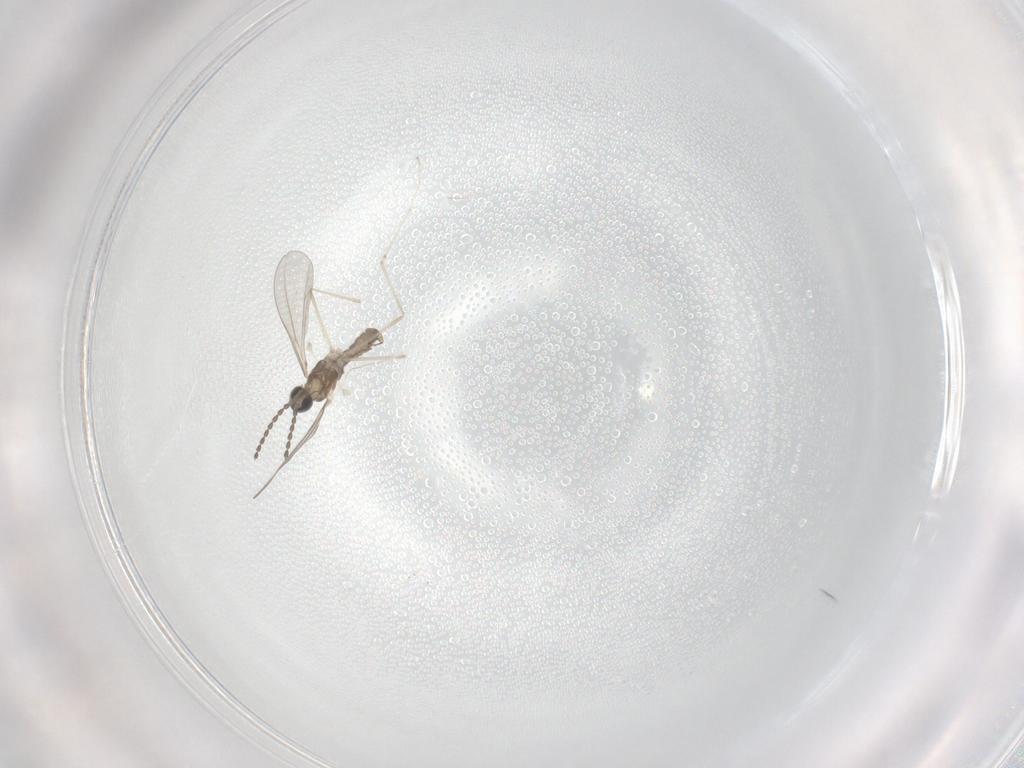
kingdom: Animalia
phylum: Arthropoda
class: Insecta
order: Diptera
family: Cecidomyiidae
